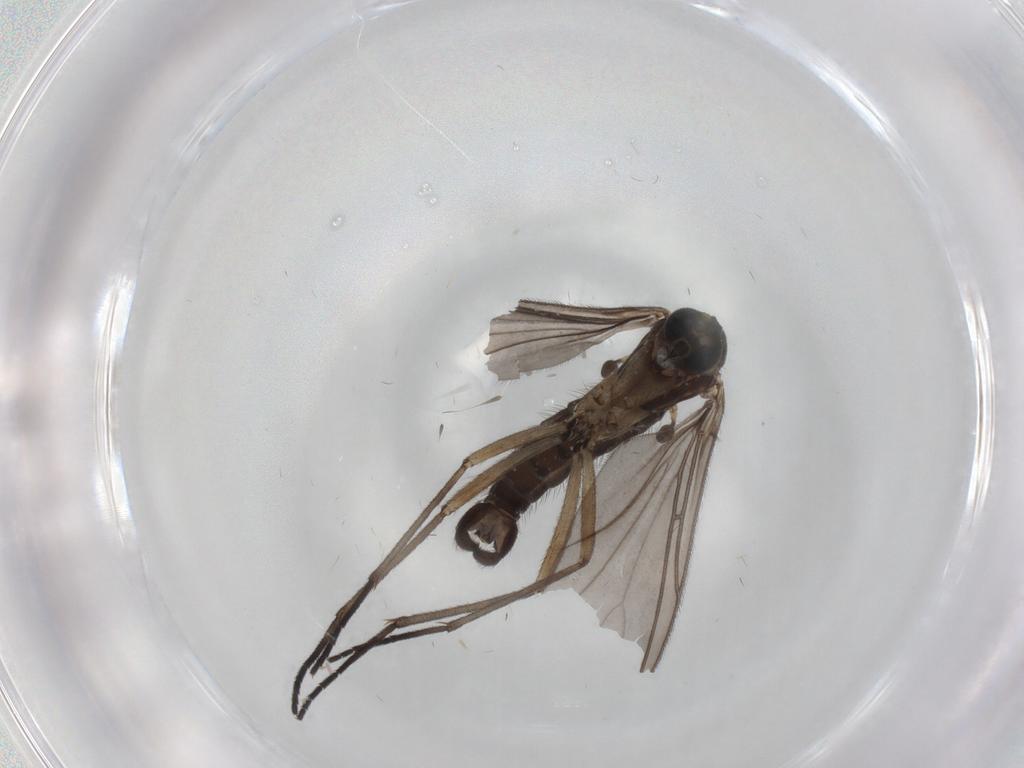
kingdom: Animalia
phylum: Arthropoda
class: Insecta
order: Diptera
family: Sciaridae
